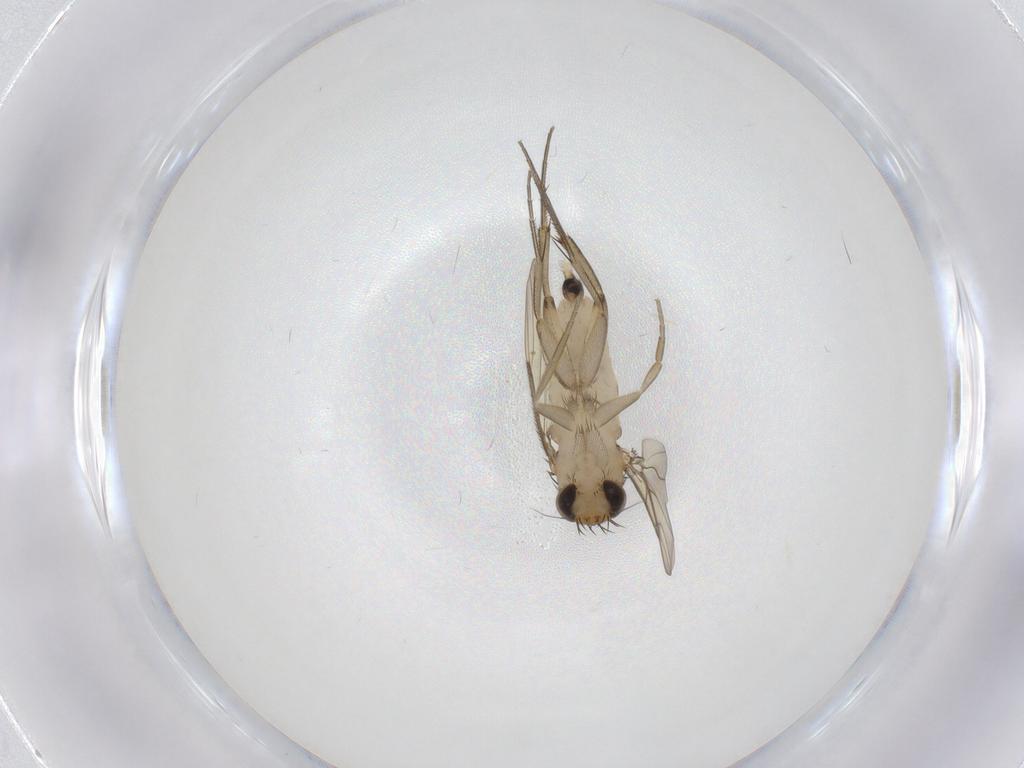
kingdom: Animalia
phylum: Arthropoda
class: Insecta
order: Diptera
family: Phoridae
